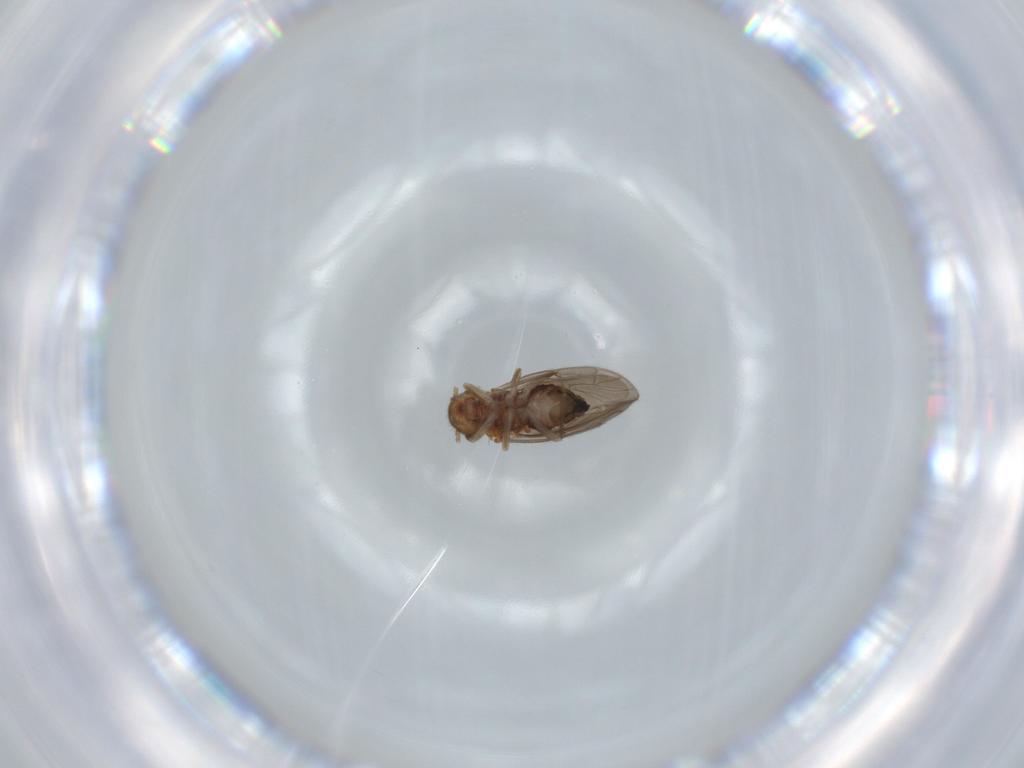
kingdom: Animalia
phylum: Arthropoda
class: Insecta
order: Psocodea
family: Ectopsocidae
